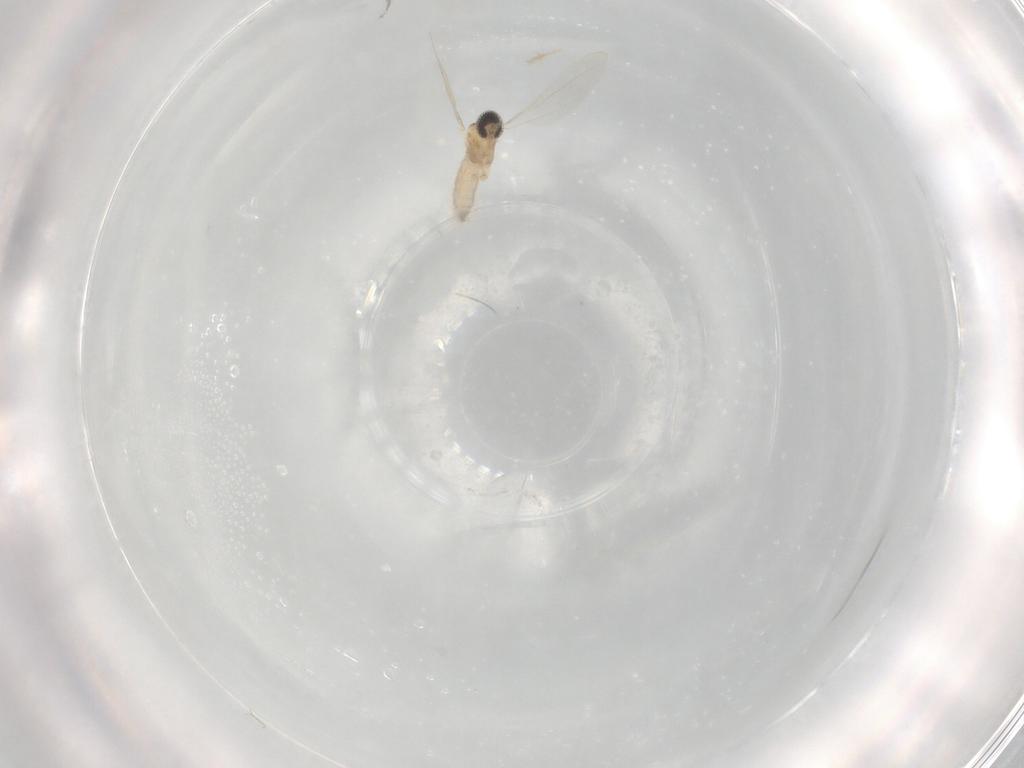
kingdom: Animalia
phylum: Arthropoda
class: Insecta
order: Diptera
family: Cecidomyiidae
